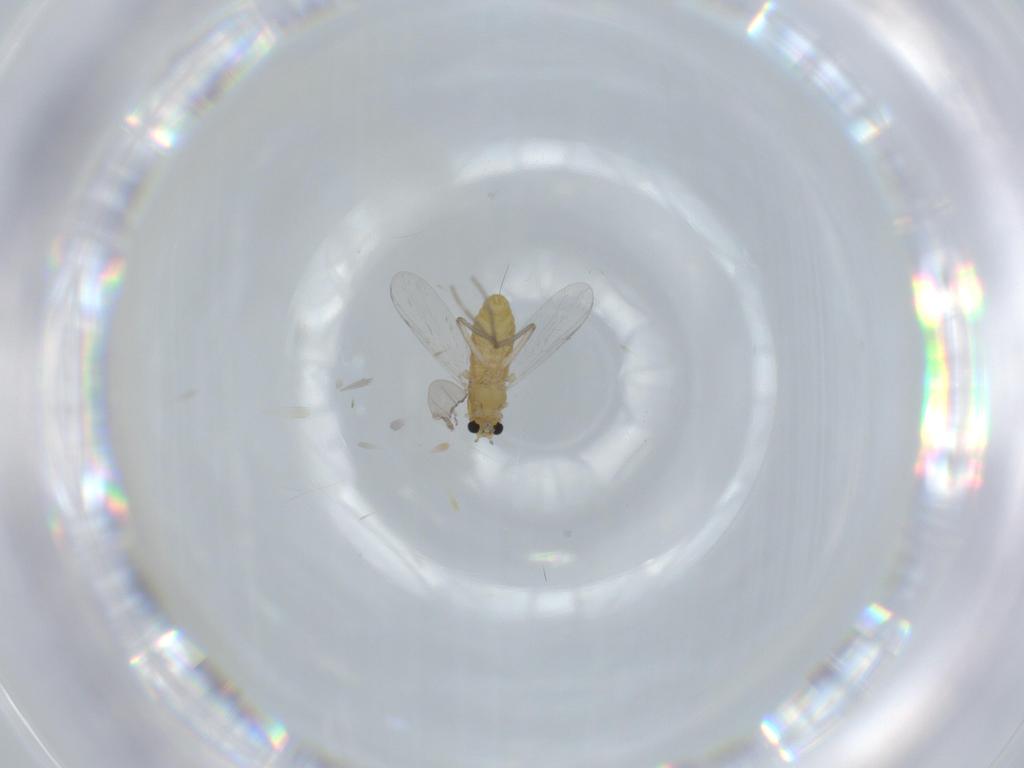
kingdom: Animalia
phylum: Arthropoda
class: Insecta
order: Diptera
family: Chironomidae
